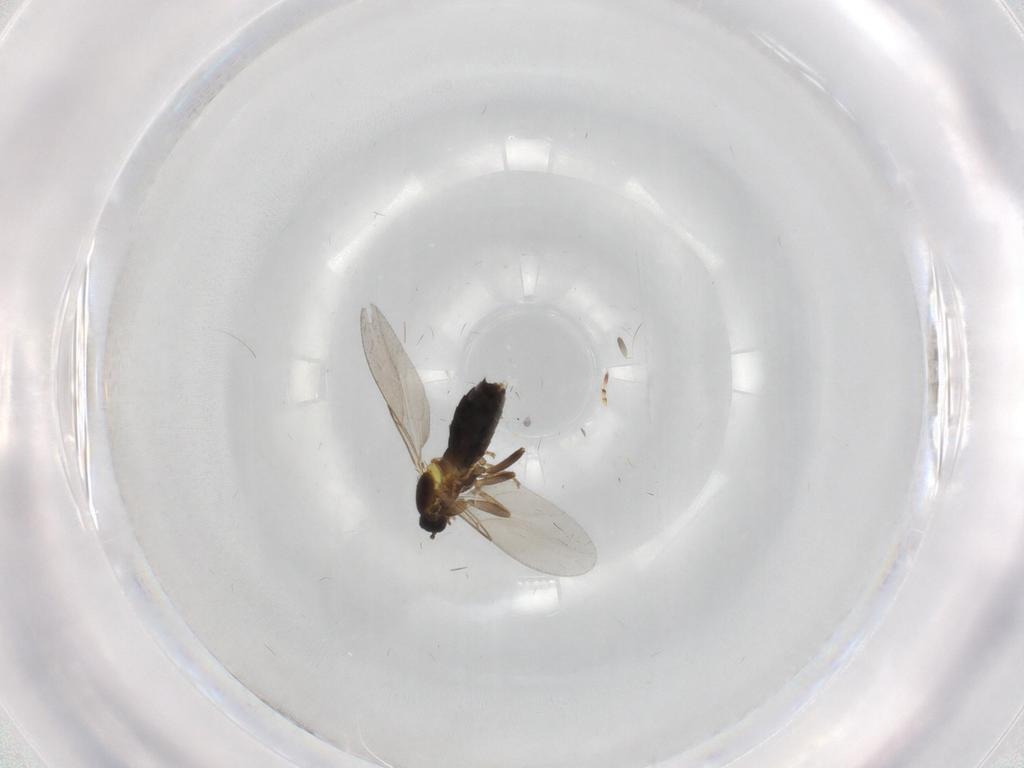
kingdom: Animalia
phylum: Arthropoda
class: Insecta
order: Diptera
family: Scatopsidae
